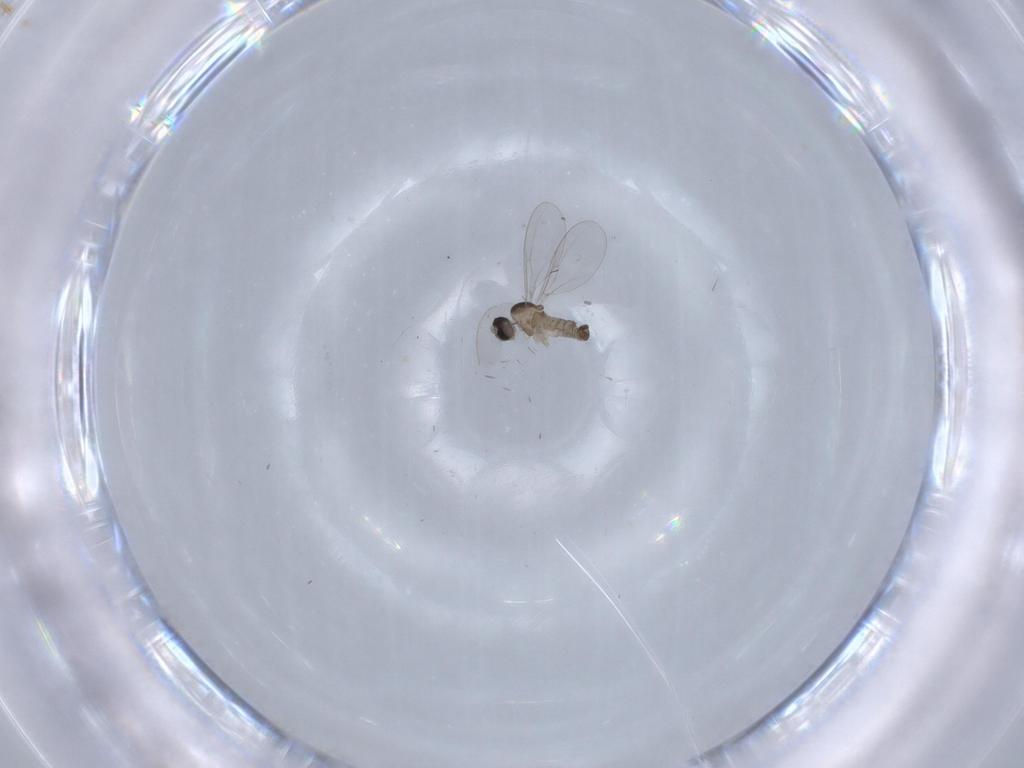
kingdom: Animalia
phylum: Arthropoda
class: Insecta
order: Diptera
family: Cecidomyiidae
